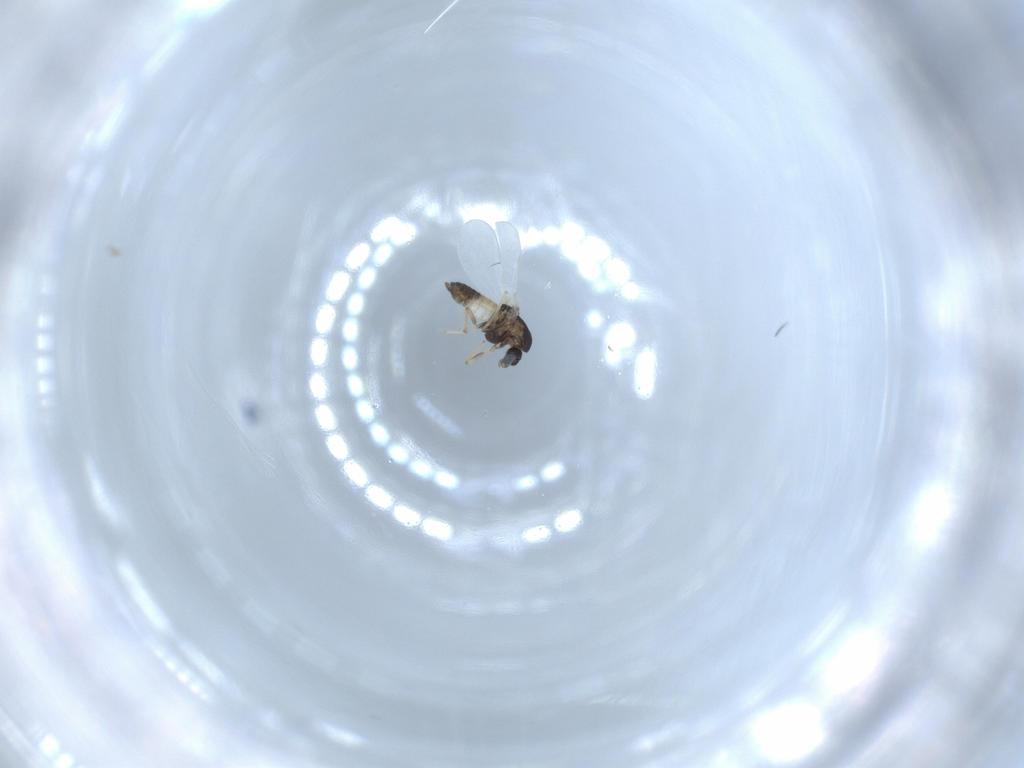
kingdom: Animalia
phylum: Arthropoda
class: Insecta
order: Diptera
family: Chironomidae
